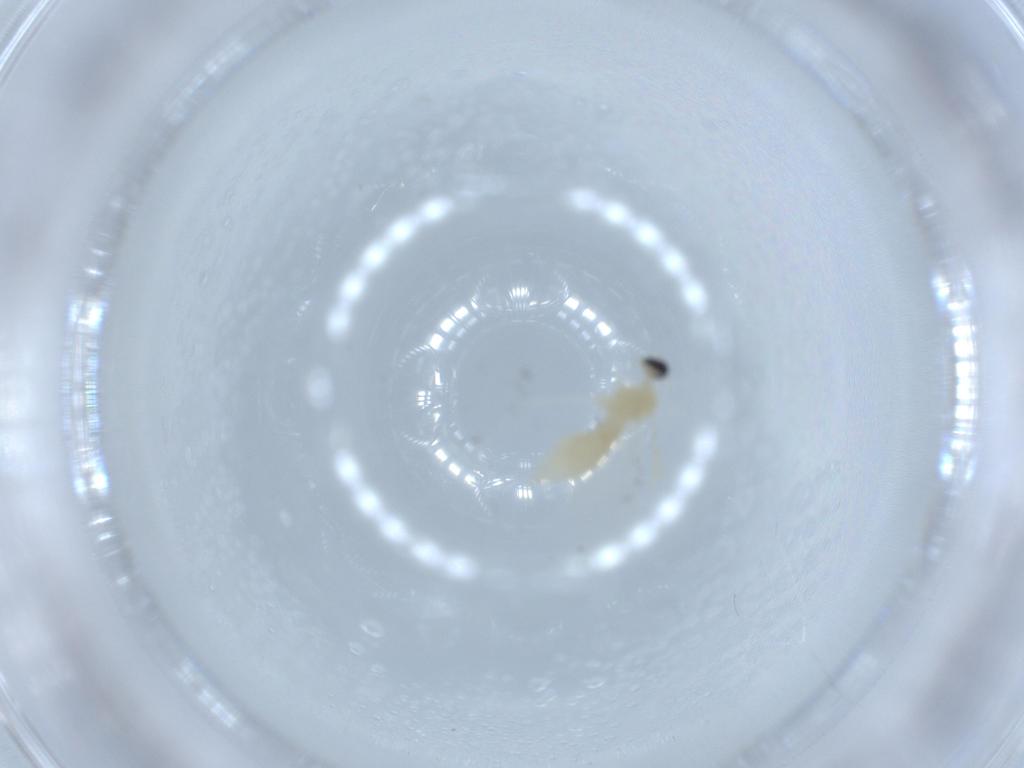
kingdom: Animalia
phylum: Arthropoda
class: Insecta
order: Diptera
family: Cecidomyiidae
